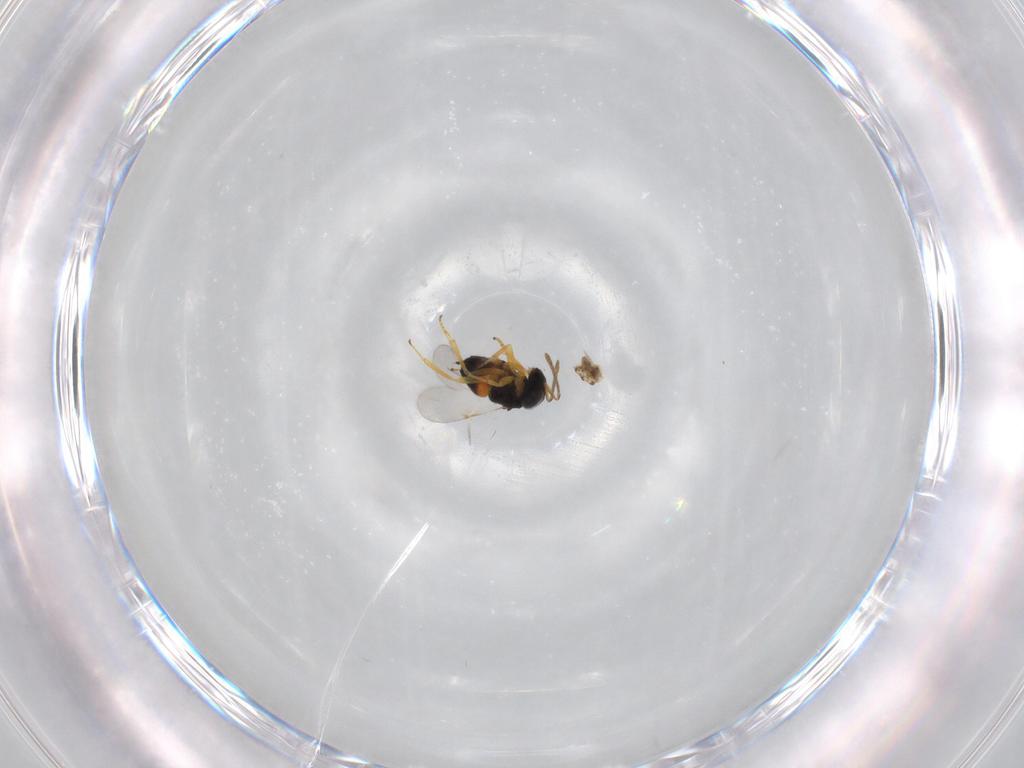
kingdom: Animalia
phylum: Arthropoda
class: Insecta
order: Hymenoptera
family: Encyrtidae
